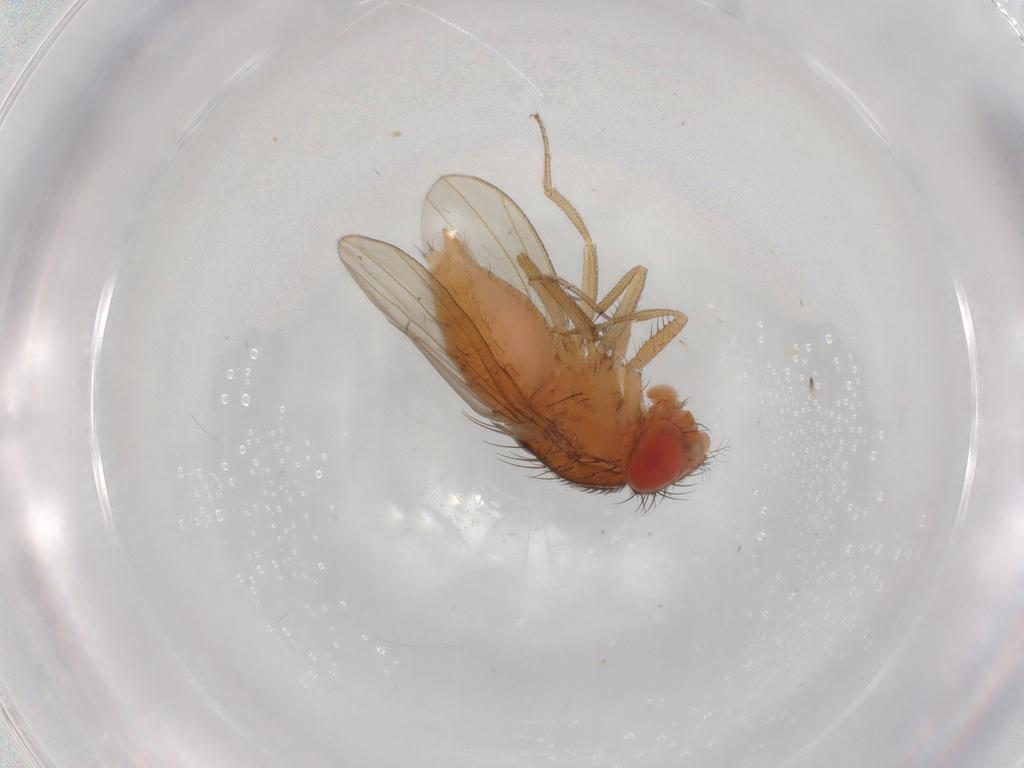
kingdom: Animalia
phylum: Arthropoda
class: Insecta
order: Diptera
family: Drosophilidae
